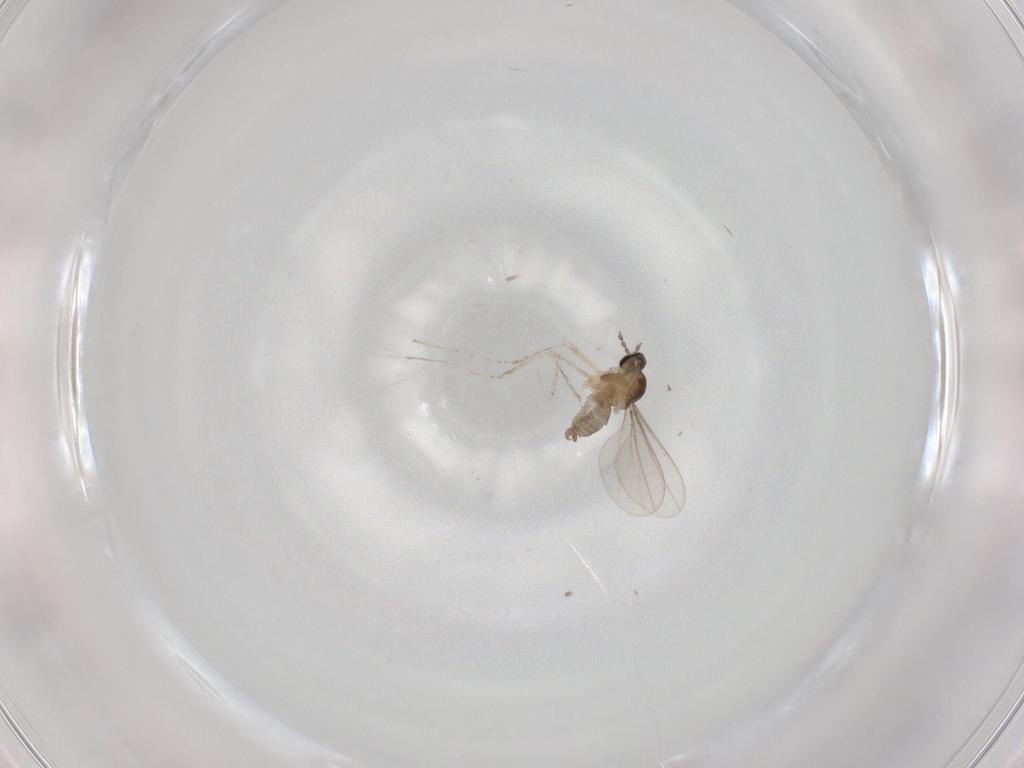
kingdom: Animalia
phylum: Arthropoda
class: Insecta
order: Diptera
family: Cecidomyiidae
